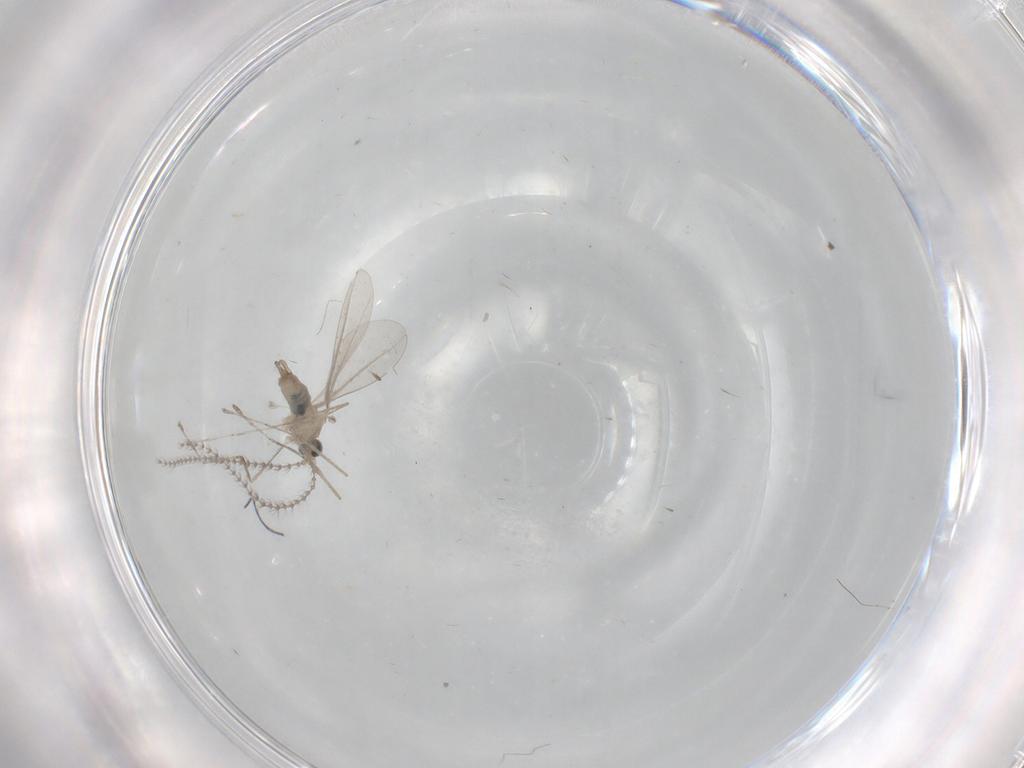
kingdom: Animalia
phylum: Arthropoda
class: Insecta
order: Diptera
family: Cecidomyiidae
